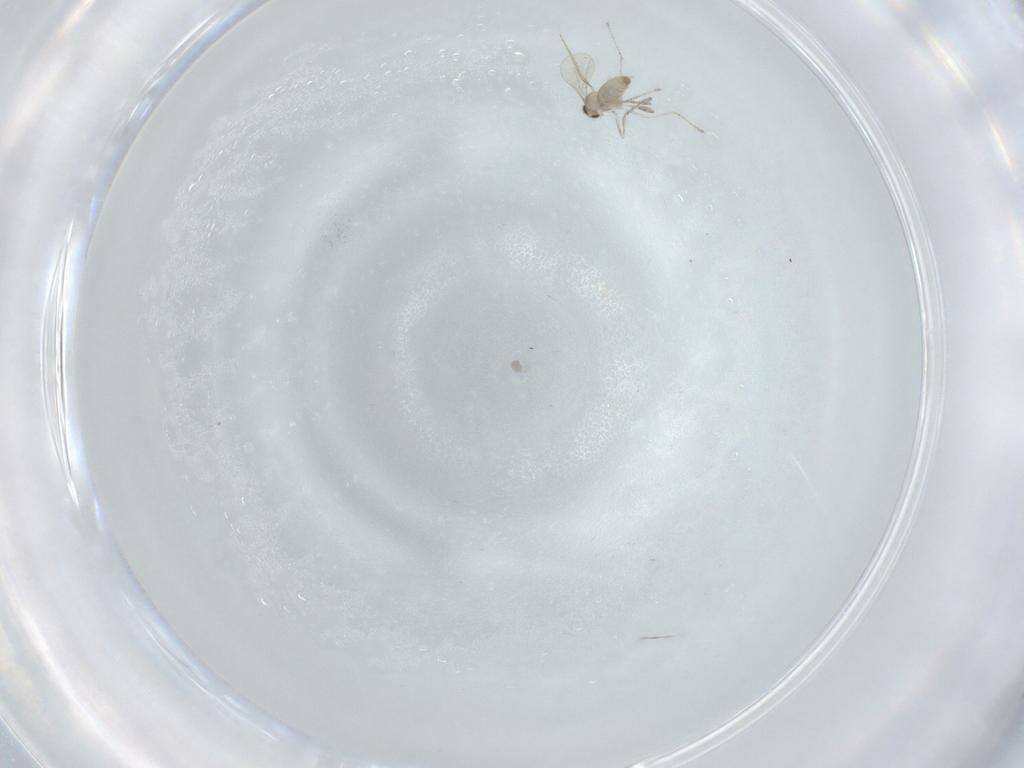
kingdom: Animalia
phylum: Arthropoda
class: Insecta
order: Diptera
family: Cecidomyiidae
